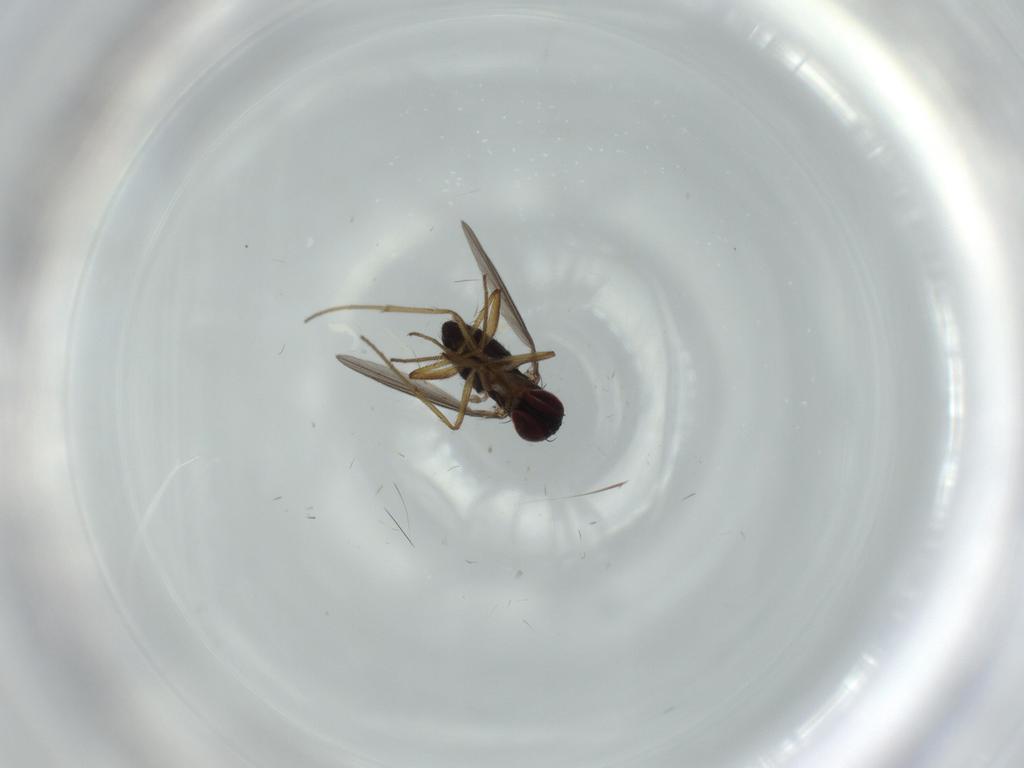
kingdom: Animalia
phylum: Arthropoda
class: Insecta
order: Diptera
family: Dolichopodidae
